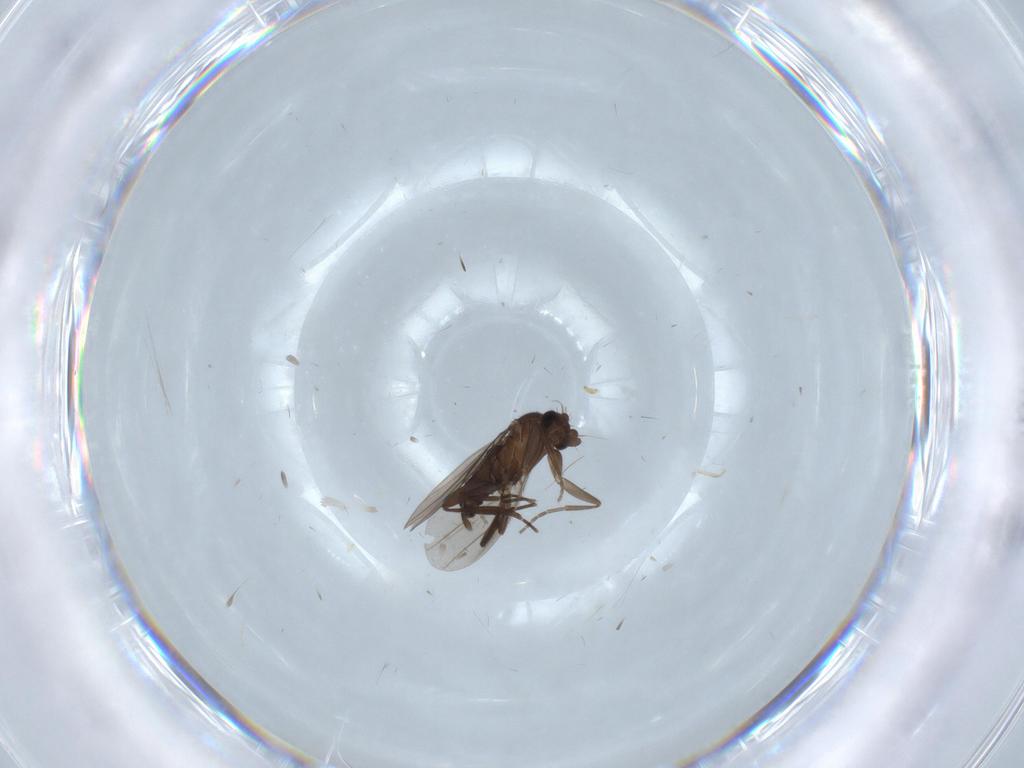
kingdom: Animalia
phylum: Arthropoda
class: Insecta
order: Diptera
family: Phoridae
